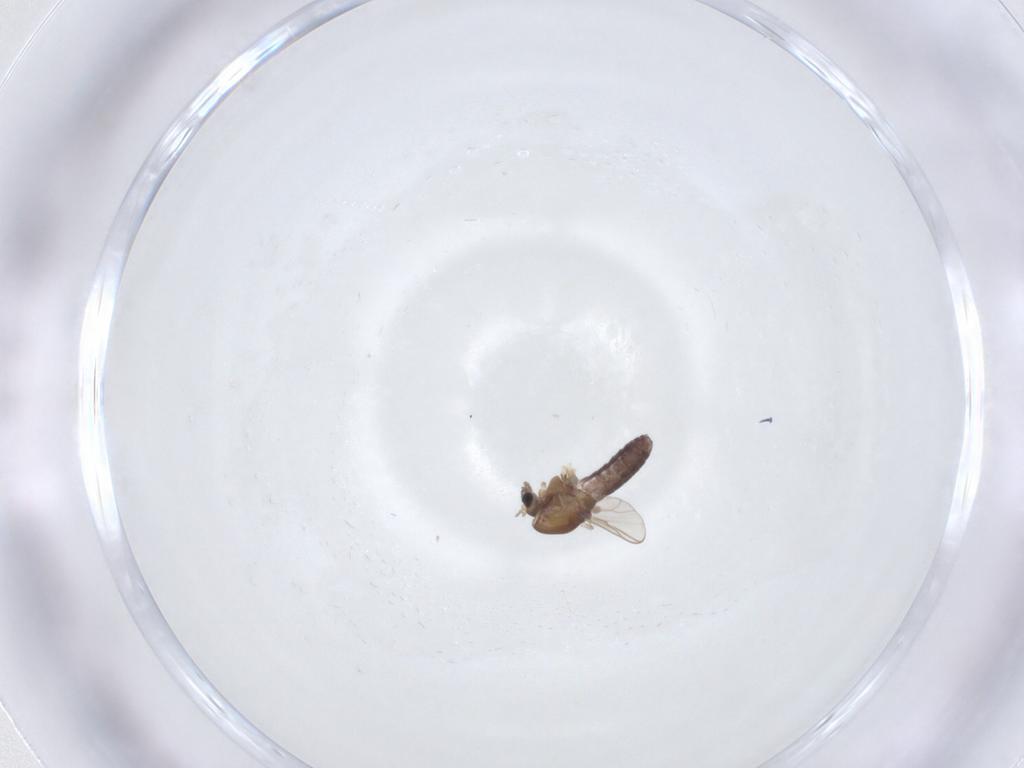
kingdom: Animalia
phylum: Arthropoda
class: Insecta
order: Diptera
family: Chironomidae
